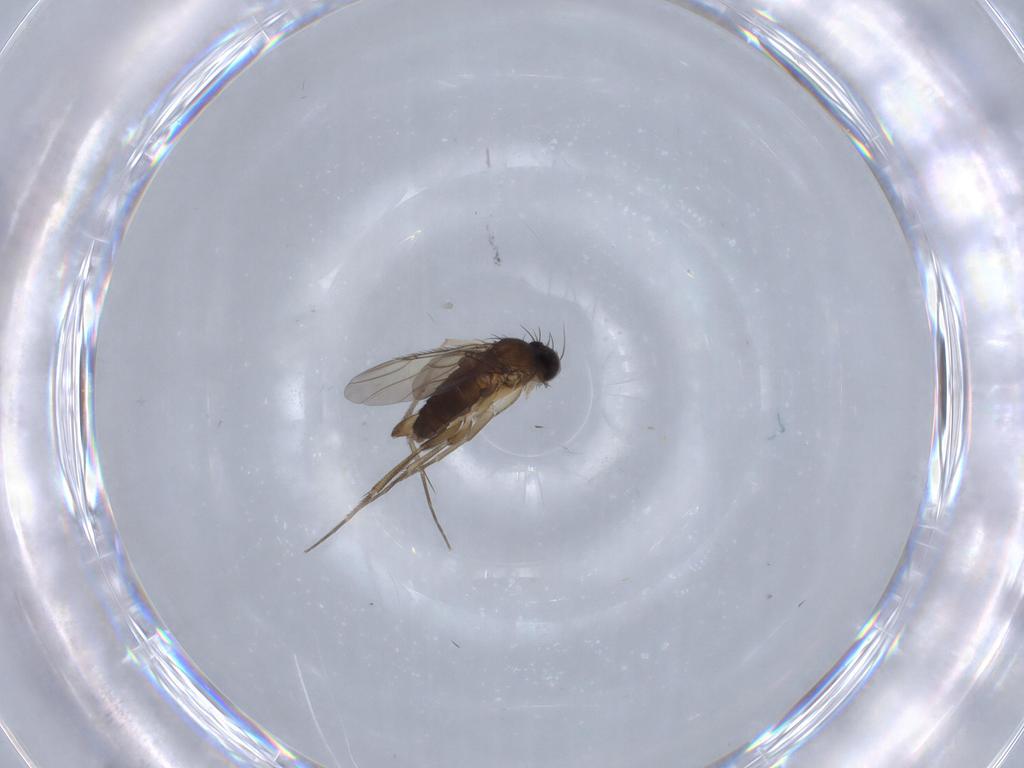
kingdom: Animalia
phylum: Arthropoda
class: Insecta
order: Diptera
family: Phoridae
